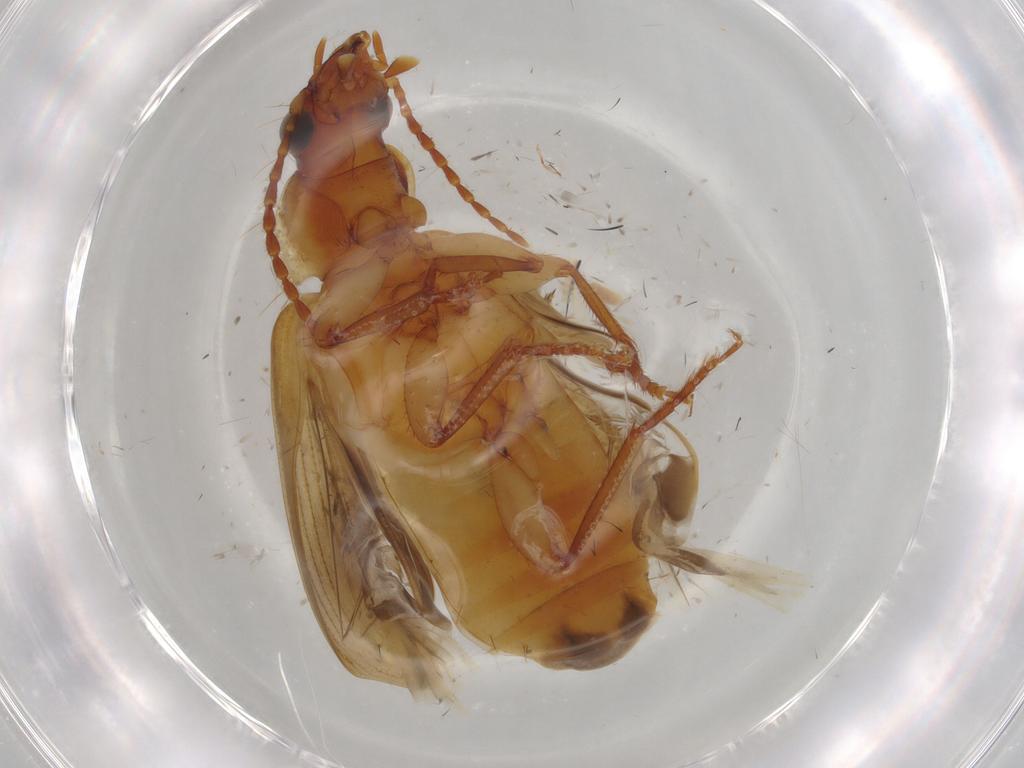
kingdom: Animalia
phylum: Arthropoda
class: Insecta
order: Coleoptera
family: Carabidae
